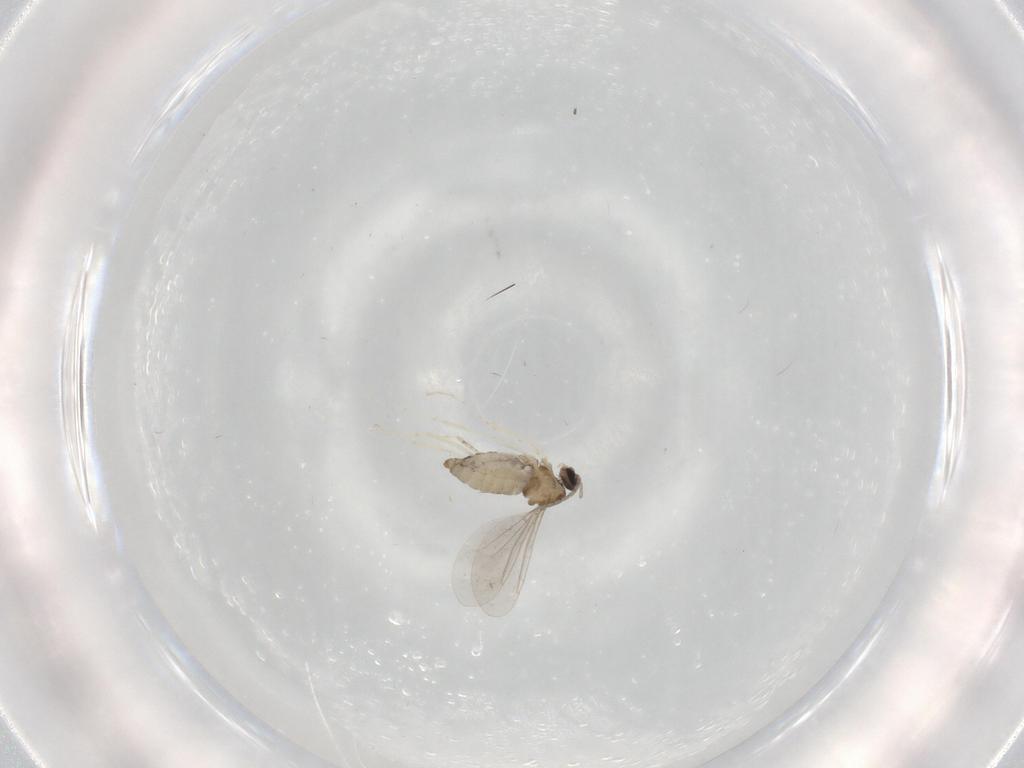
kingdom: Animalia
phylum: Arthropoda
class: Insecta
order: Diptera
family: Cecidomyiidae
